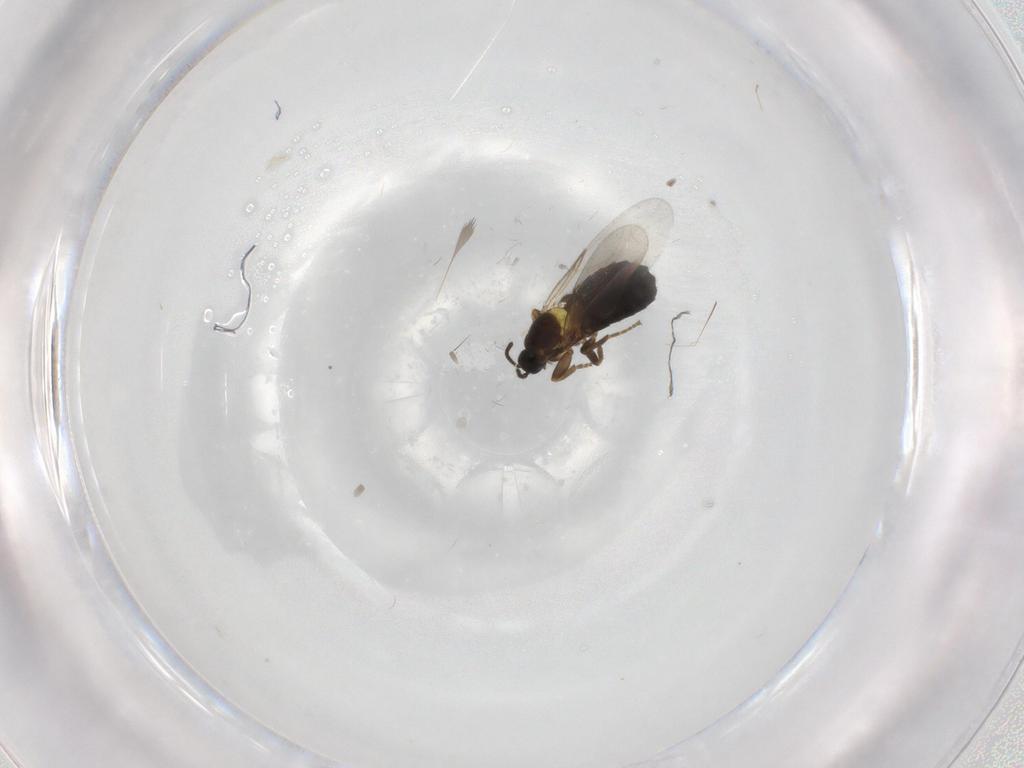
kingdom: Animalia
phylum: Arthropoda
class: Insecta
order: Diptera
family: Scatopsidae
